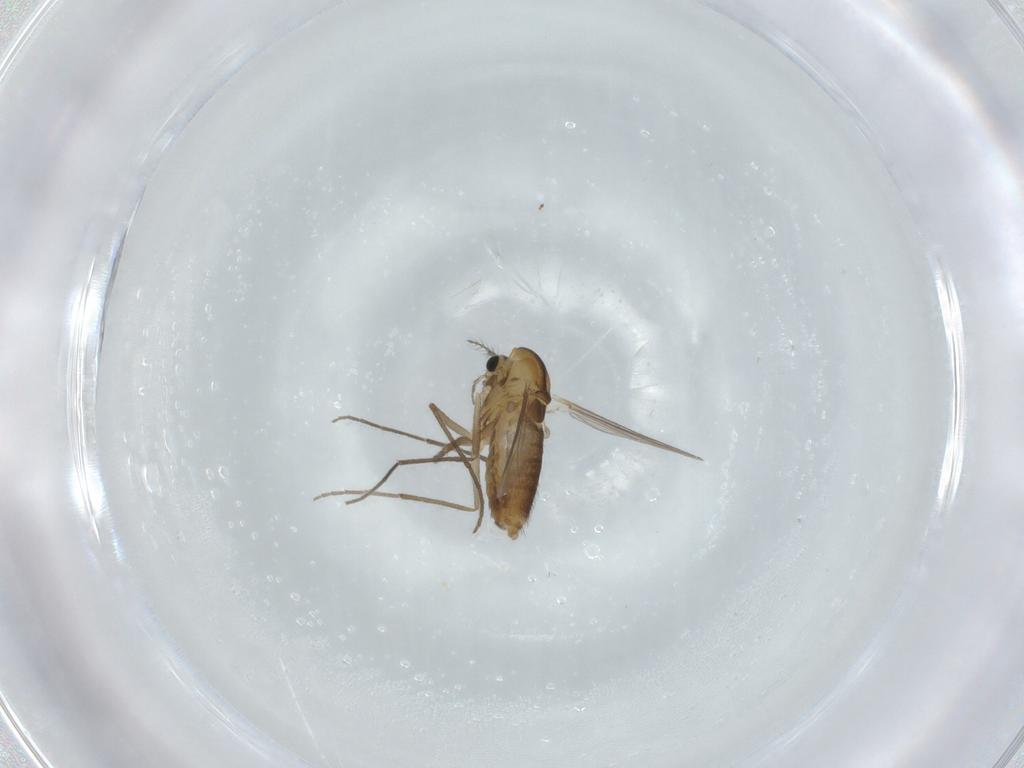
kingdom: Animalia
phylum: Arthropoda
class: Insecta
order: Diptera
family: Chironomidae
